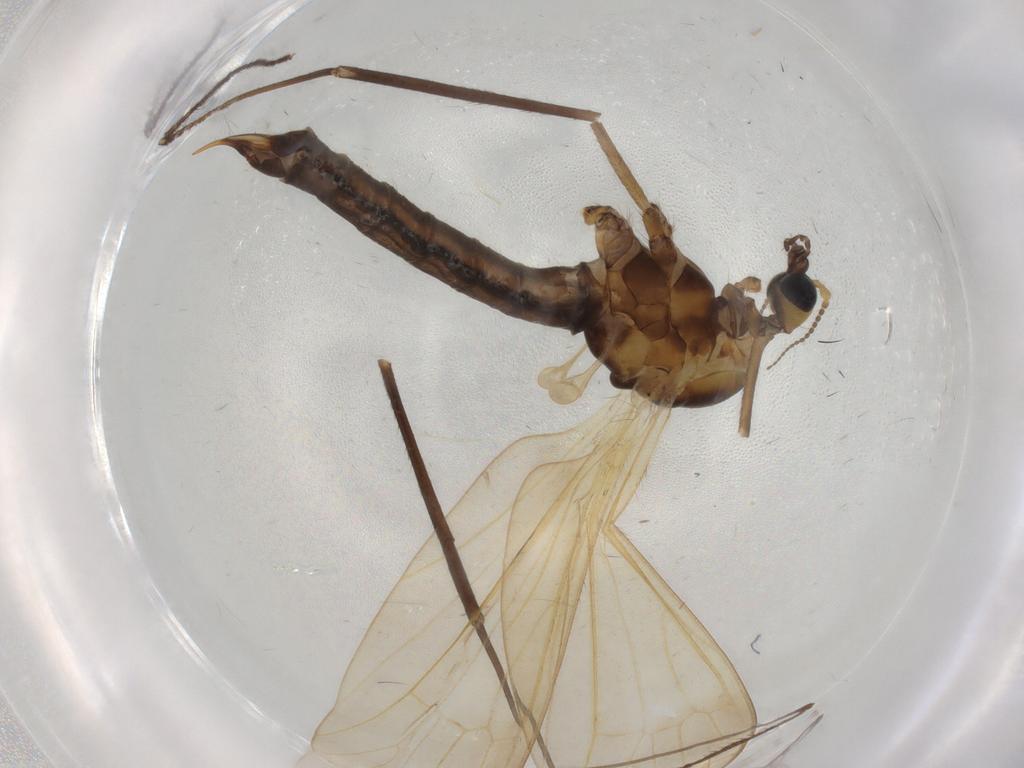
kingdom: Animalia
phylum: Arthropoda
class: Insecta
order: Diptera
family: Limoniidae
